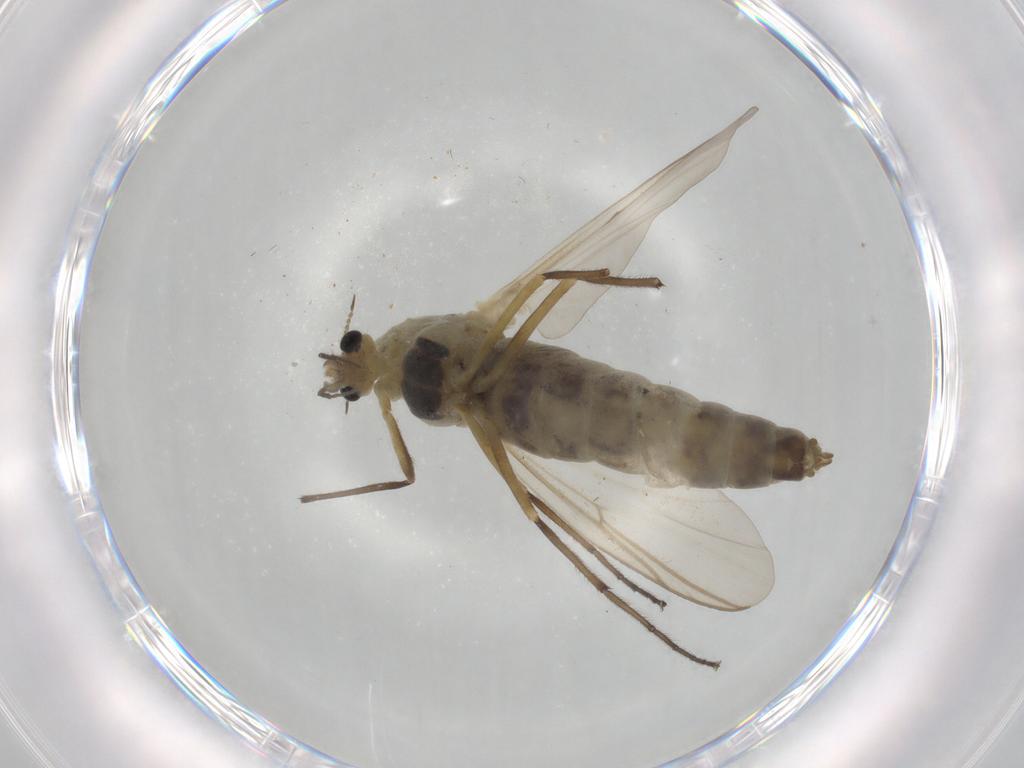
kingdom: Animalia
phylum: Arthropoda
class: Insecta
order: Diptera
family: Anthomyiidae
